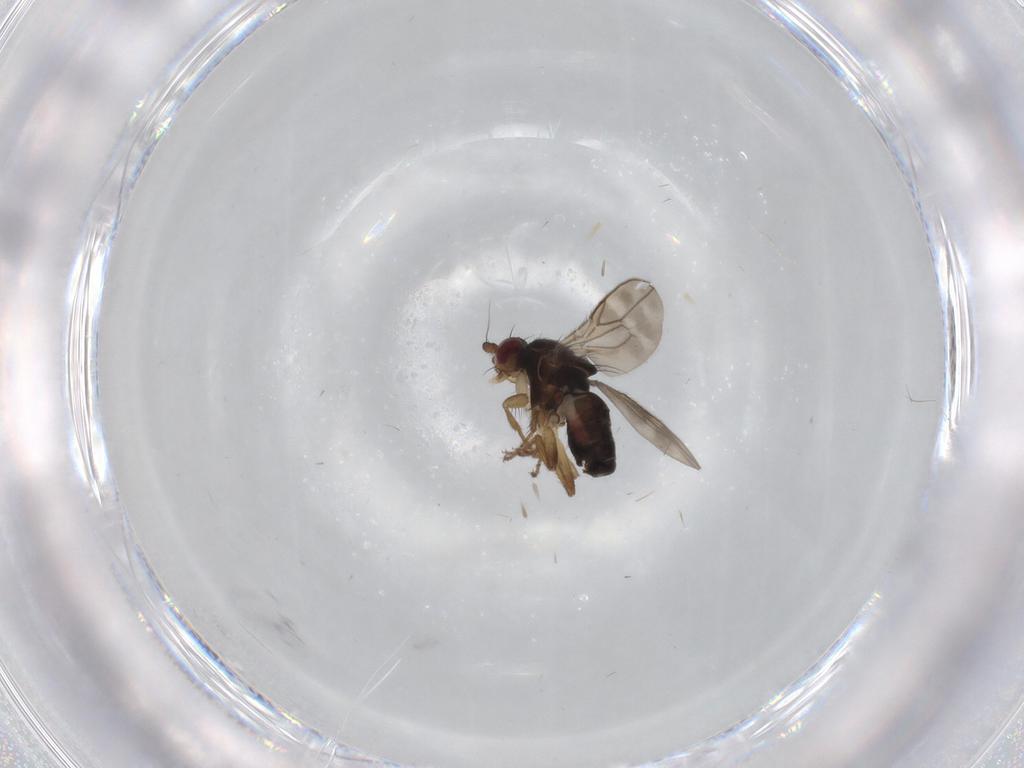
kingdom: Animalia
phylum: Arthropoda
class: Insecta
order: Diptera
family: Sphaeroceridae
